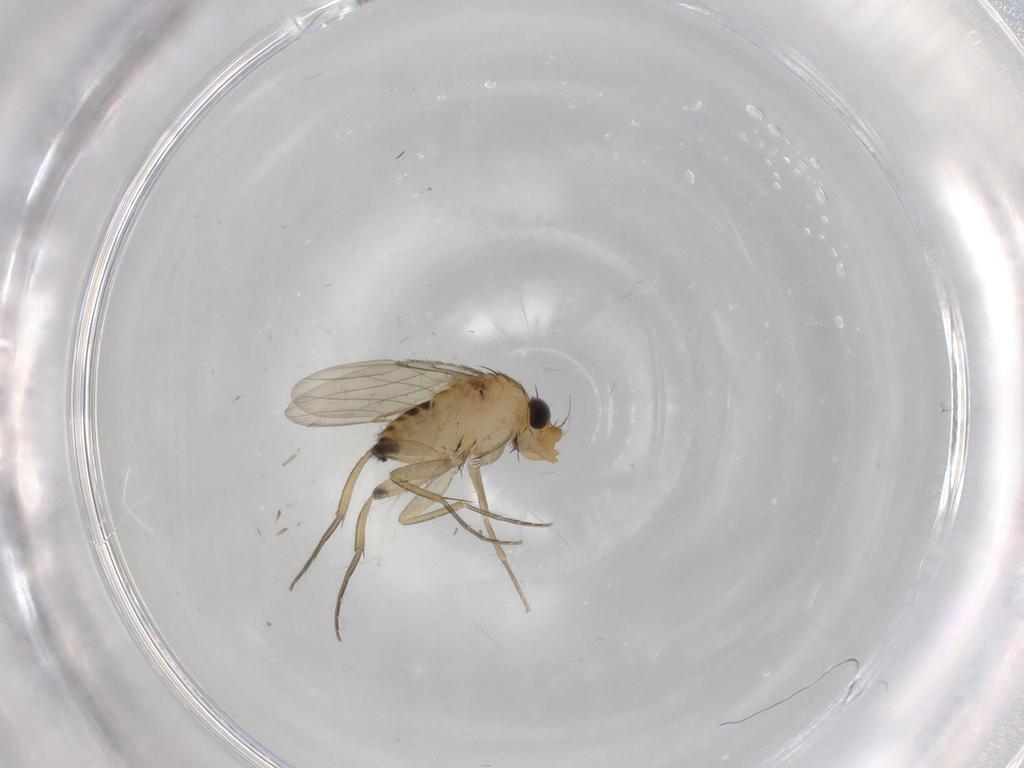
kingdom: Animalia
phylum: Arthropoda
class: Insecta
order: Diptera
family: Phoridae
